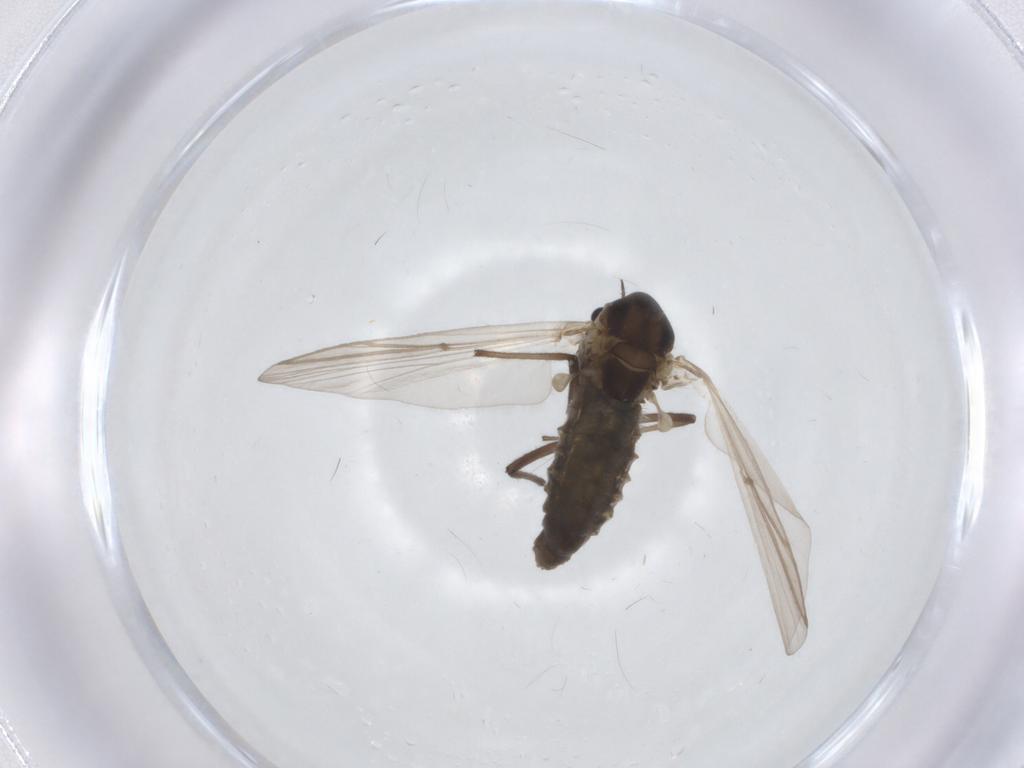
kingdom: Animalia
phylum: Arthropoda
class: Insecta
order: Diptera
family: Chironomidae
